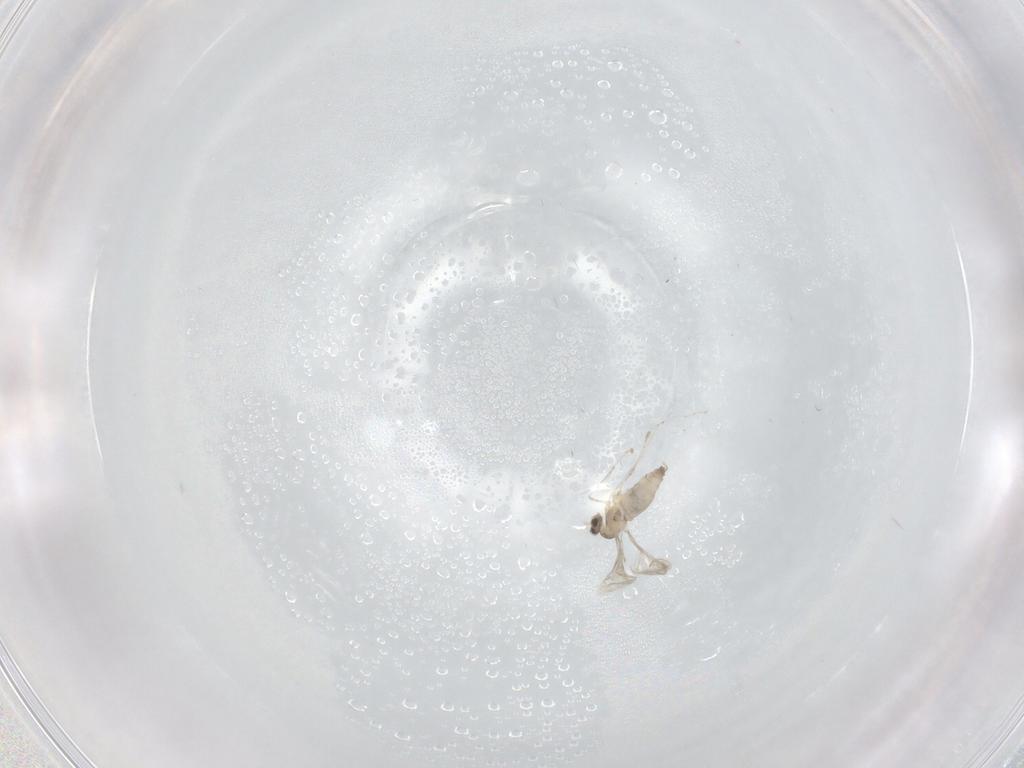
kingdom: Animalia
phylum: Arthropoda
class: Insecta
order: Diptera
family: Cecidomyiidae
